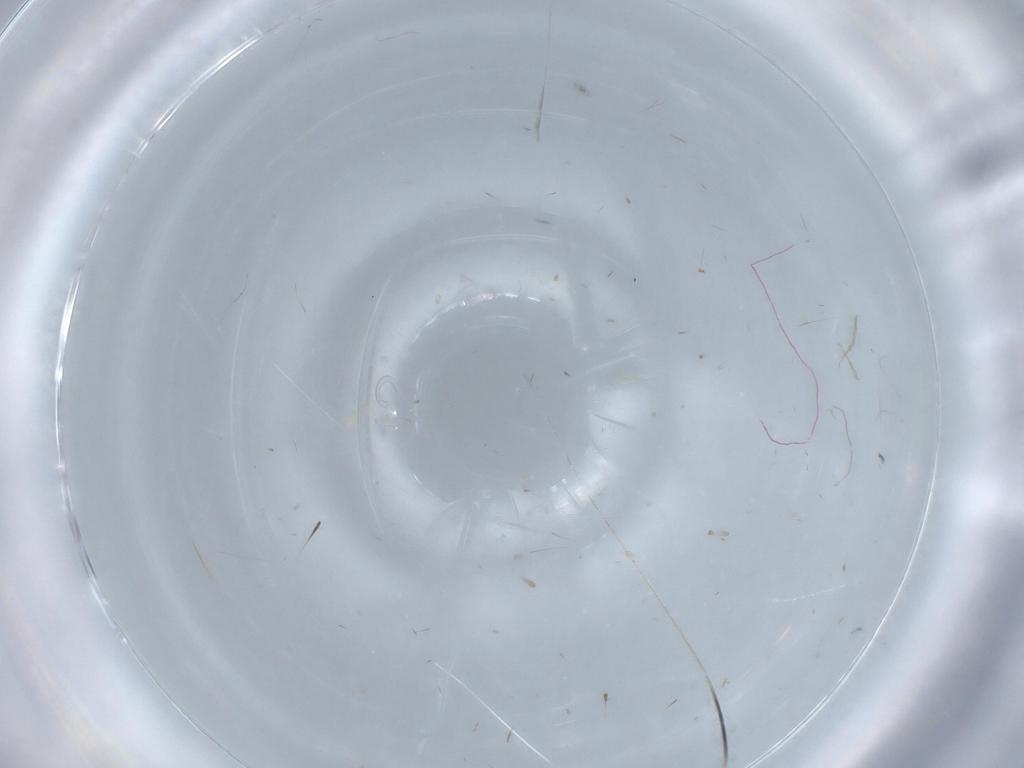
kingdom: Animalia
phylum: Arthropoda
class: Insecta
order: Blattodea
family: Epilampridae
